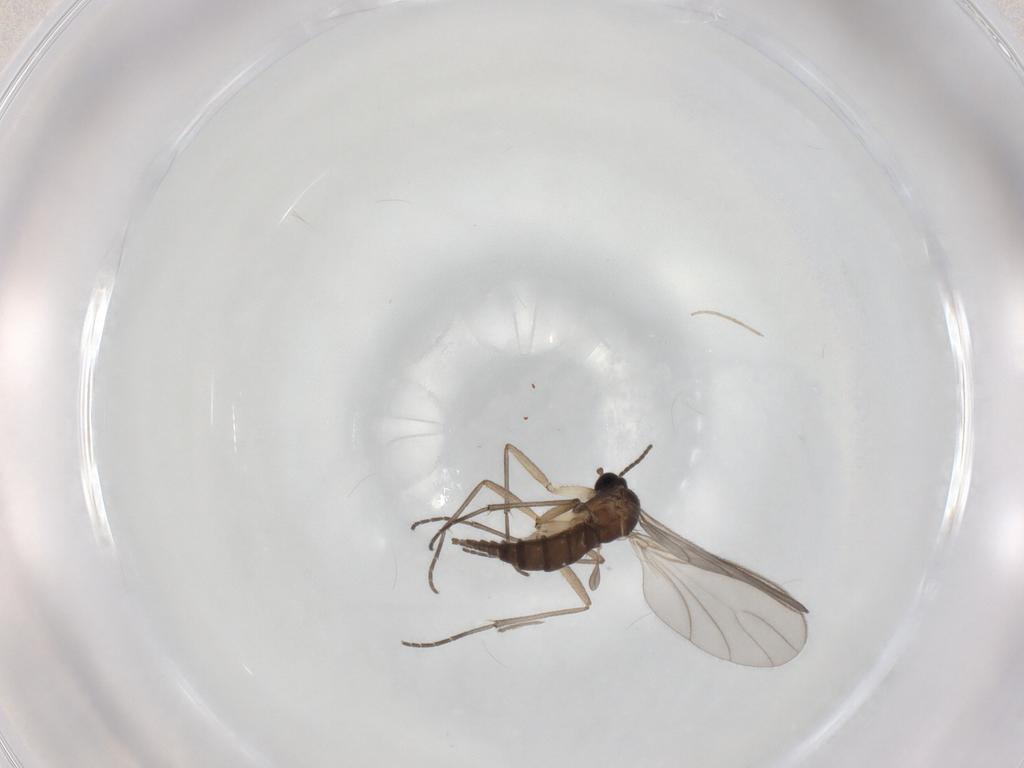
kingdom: Animalia
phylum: Arthropoda
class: Insecta
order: Diptera
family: Sciaridae
